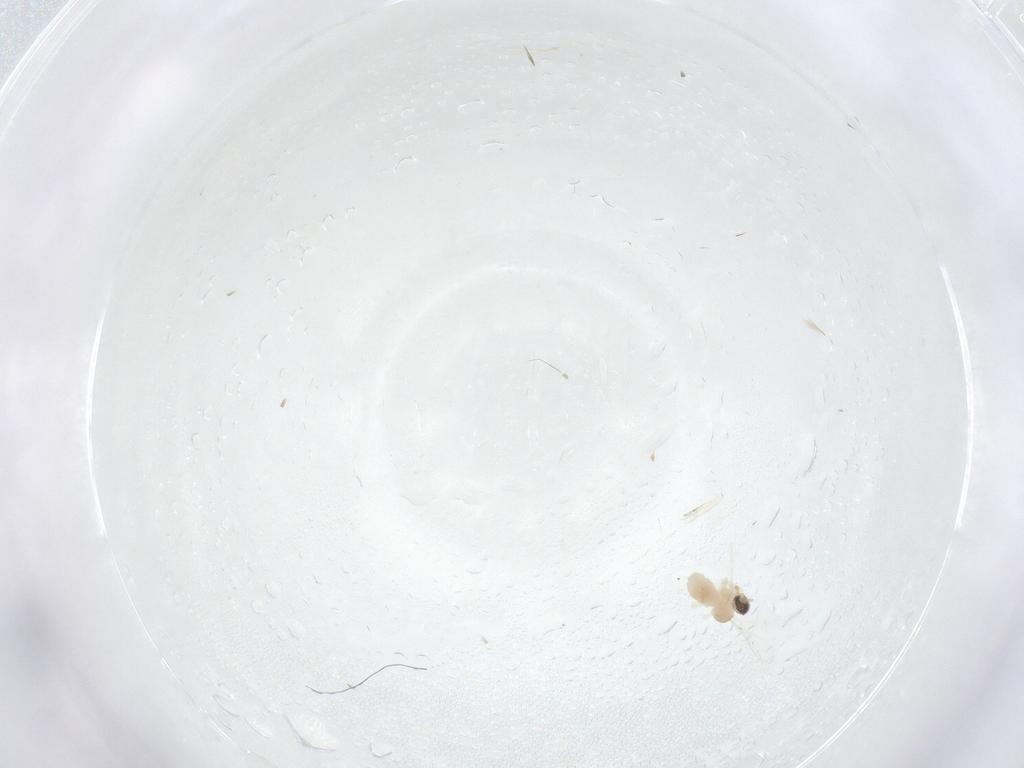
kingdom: Animalia
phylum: Arthropoda
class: Insecta
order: Diptera
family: Cecidomyiidae
